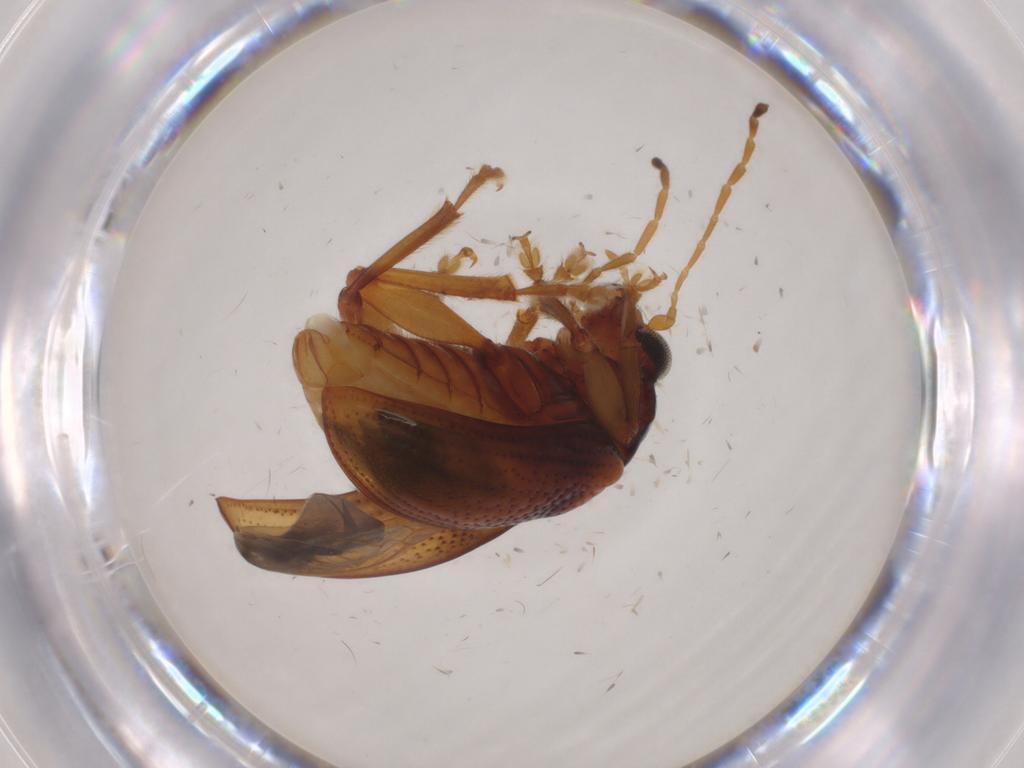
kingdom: Animalia
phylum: Arthropoda
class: Insecta
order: Coleoptera
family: Chrysomelidae
